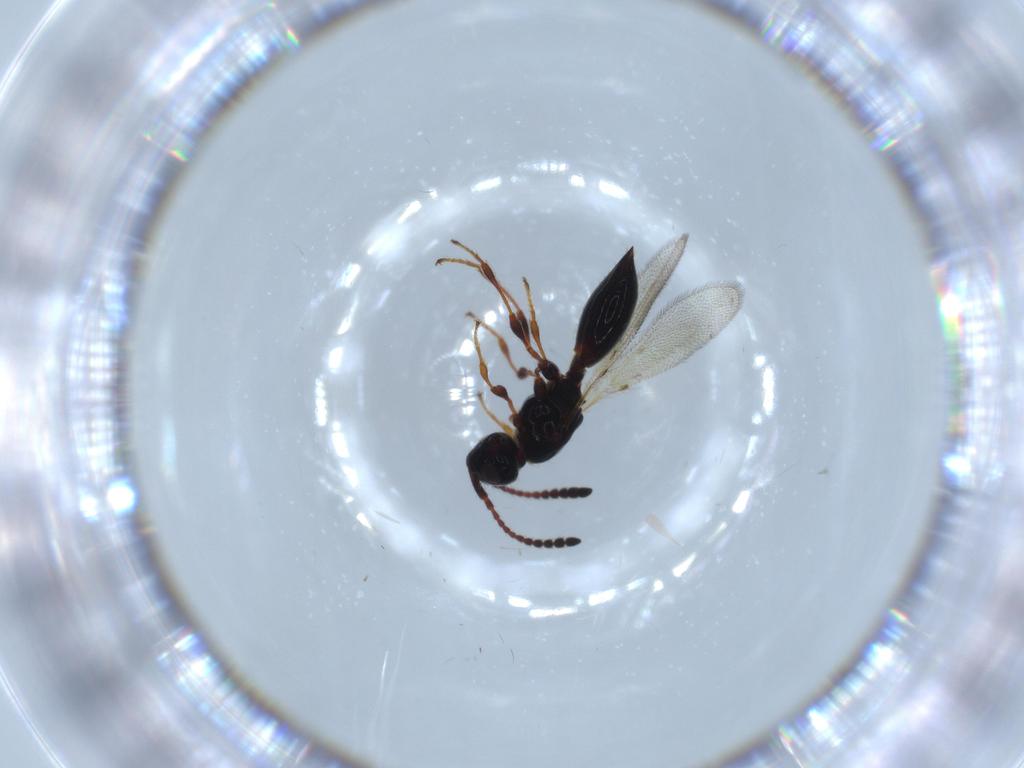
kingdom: Animalia
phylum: Arthropoda
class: Insecta
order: Hymenoptera
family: Diapriidae
